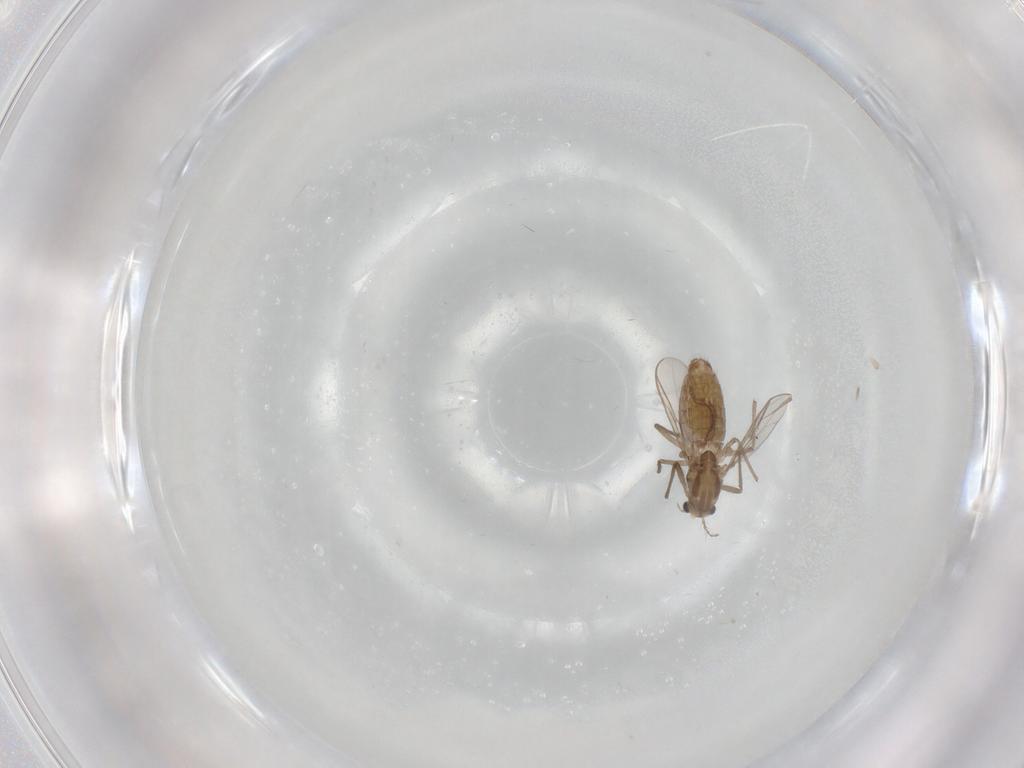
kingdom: Animalia
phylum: Arthropoda
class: Insecta
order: Diptera
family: Chironomidae
